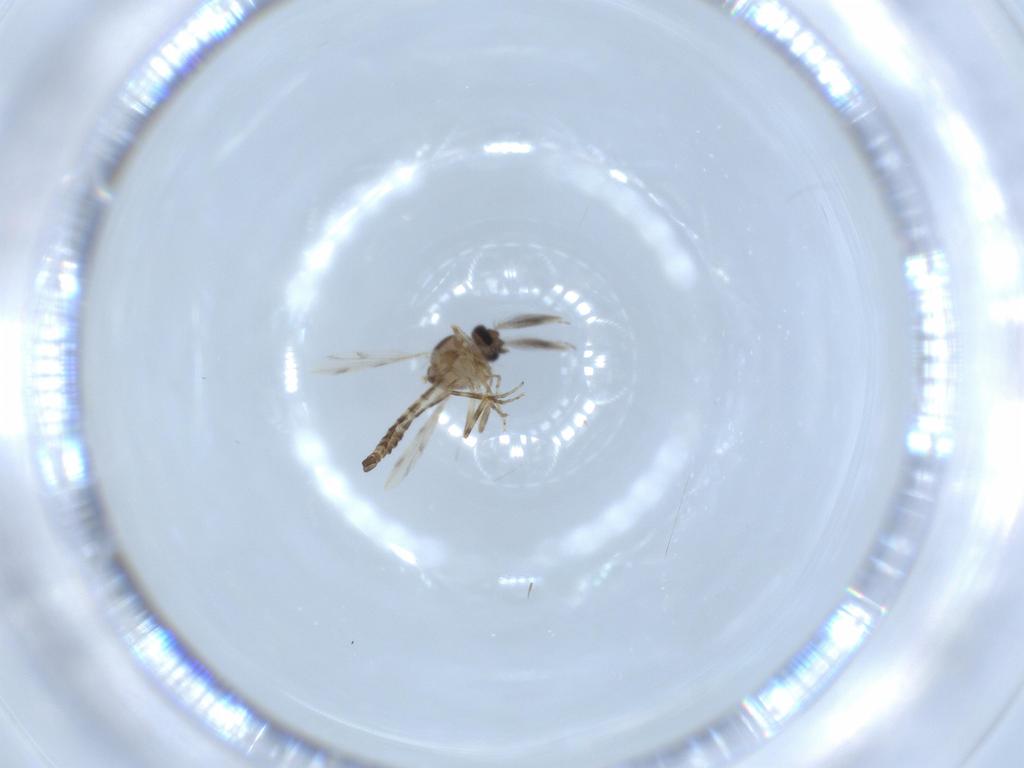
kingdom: Animalia
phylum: Arthropoda
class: Insecta
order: Diptera
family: Ceratopogonidae
